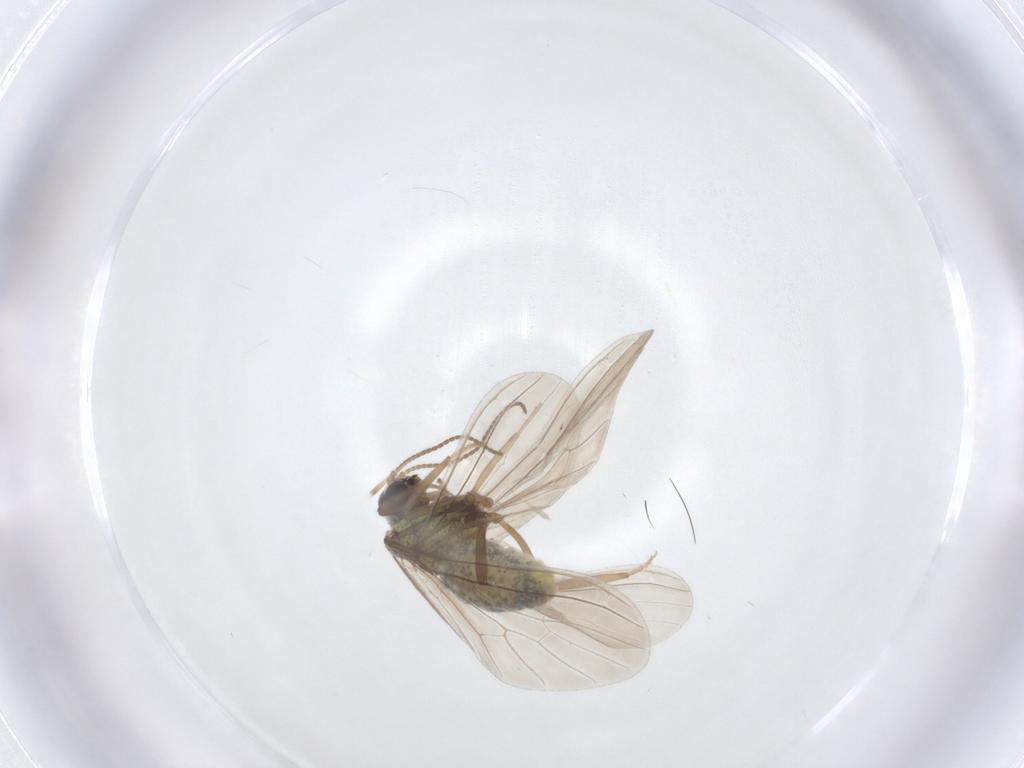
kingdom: Animalia
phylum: Arthropoda
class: Insecta
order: Neuroptera
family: Coniopterygidae
